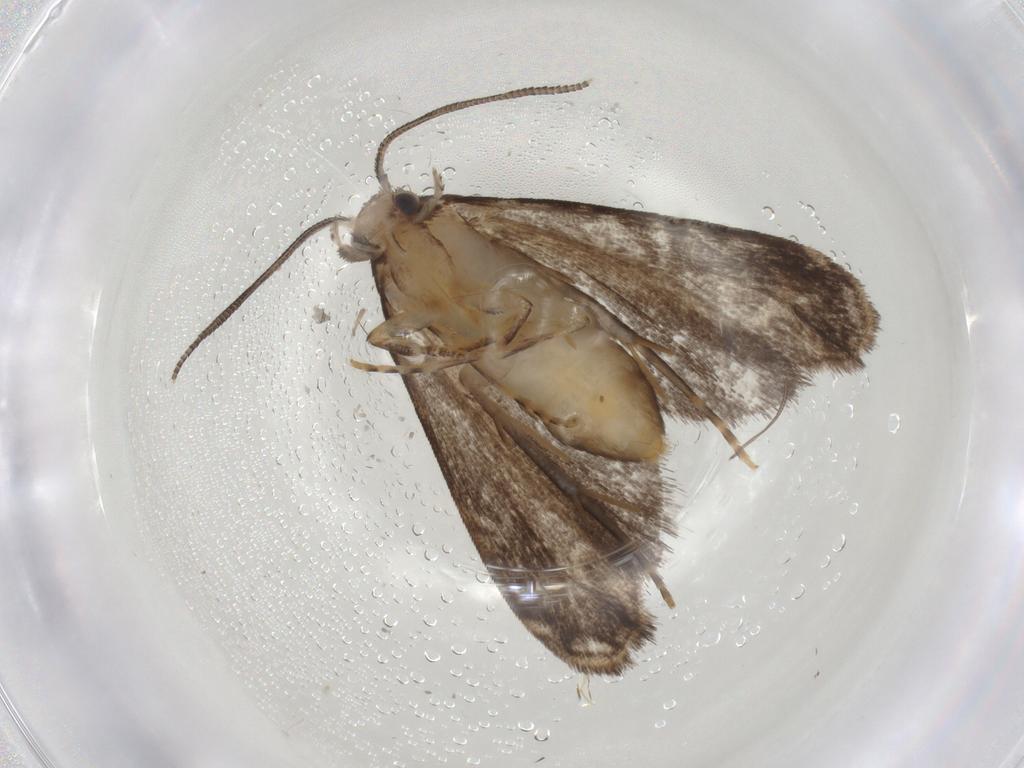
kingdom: Animalia
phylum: Arthropoda
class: Insecta
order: Lepidoptera
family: Dryadaulidae
